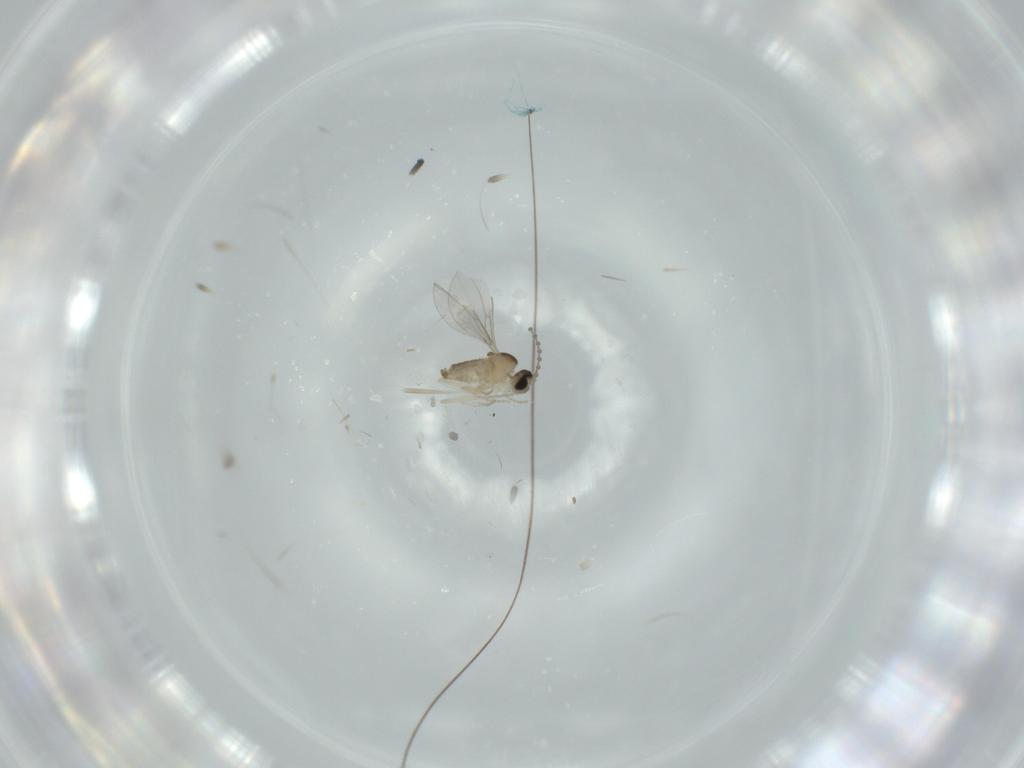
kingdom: Animalia
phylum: Arthropoda
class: Insecta
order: Diptera
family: Cecidomyiidae
